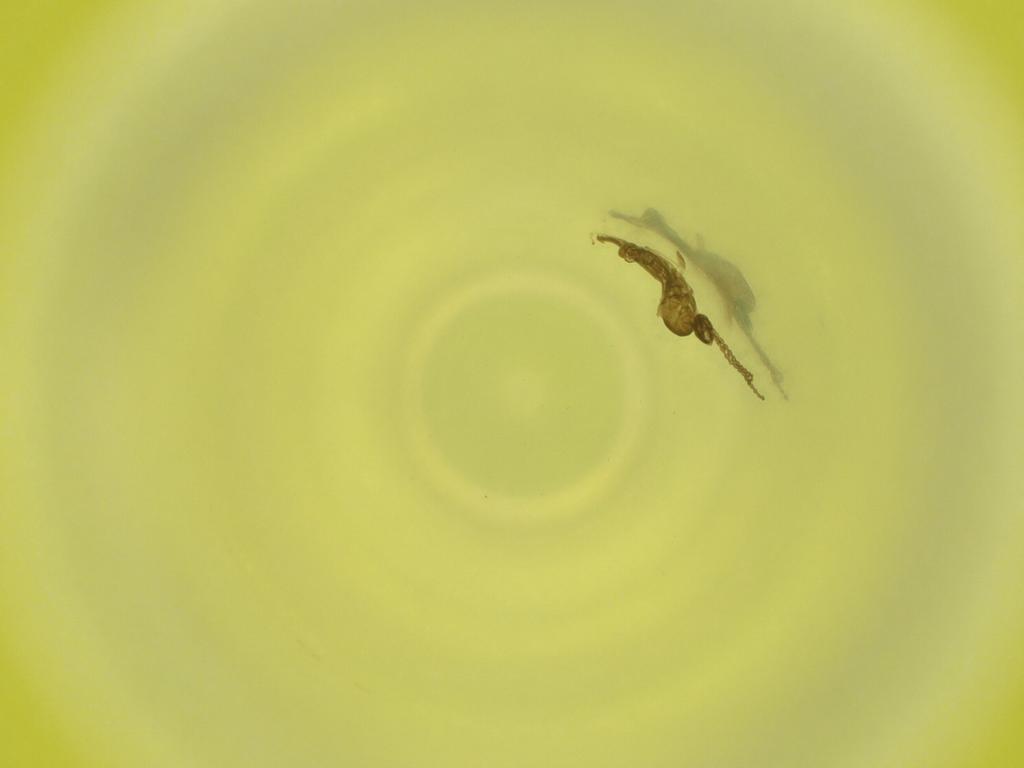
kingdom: Animalia
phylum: Arthropoda
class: Insecta
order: Diptera
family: Cecidomyiidae
